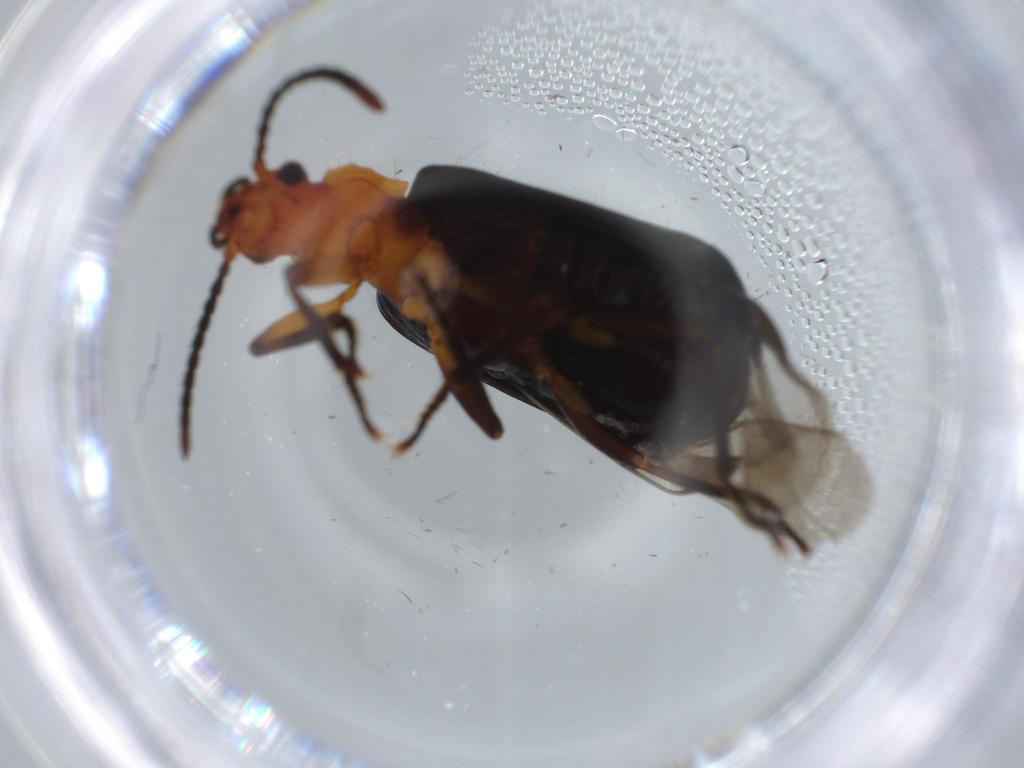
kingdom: Animalia
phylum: Arthropoda
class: Insecta
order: Coleoptera
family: Carabidae
